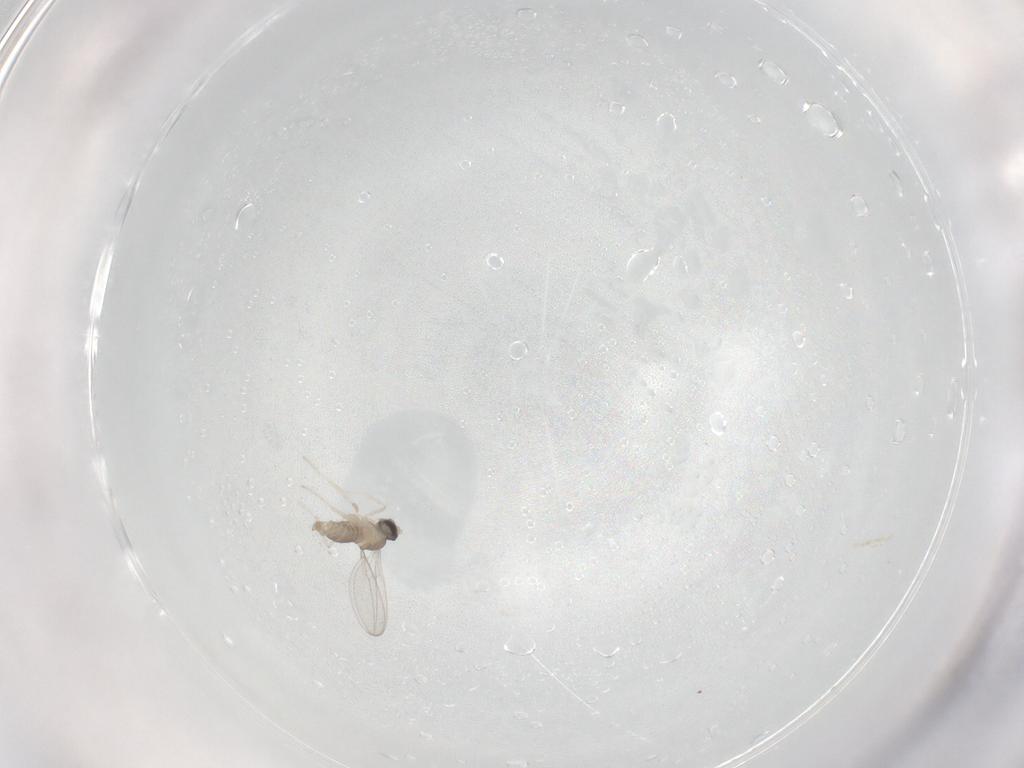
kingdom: Animalia
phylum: Arthropoda
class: Insecta
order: Diptera
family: Cecidomyiidae
